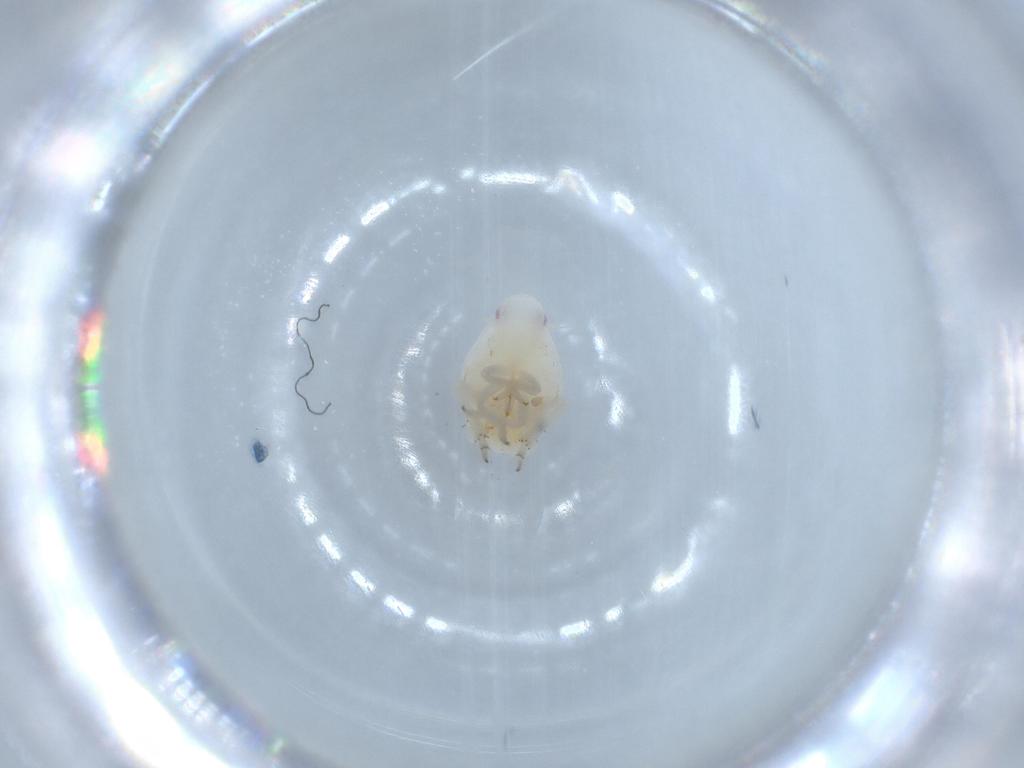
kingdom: Animalia
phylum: Arthropoda
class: Insecta
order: Hemiptera
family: Flatidae
